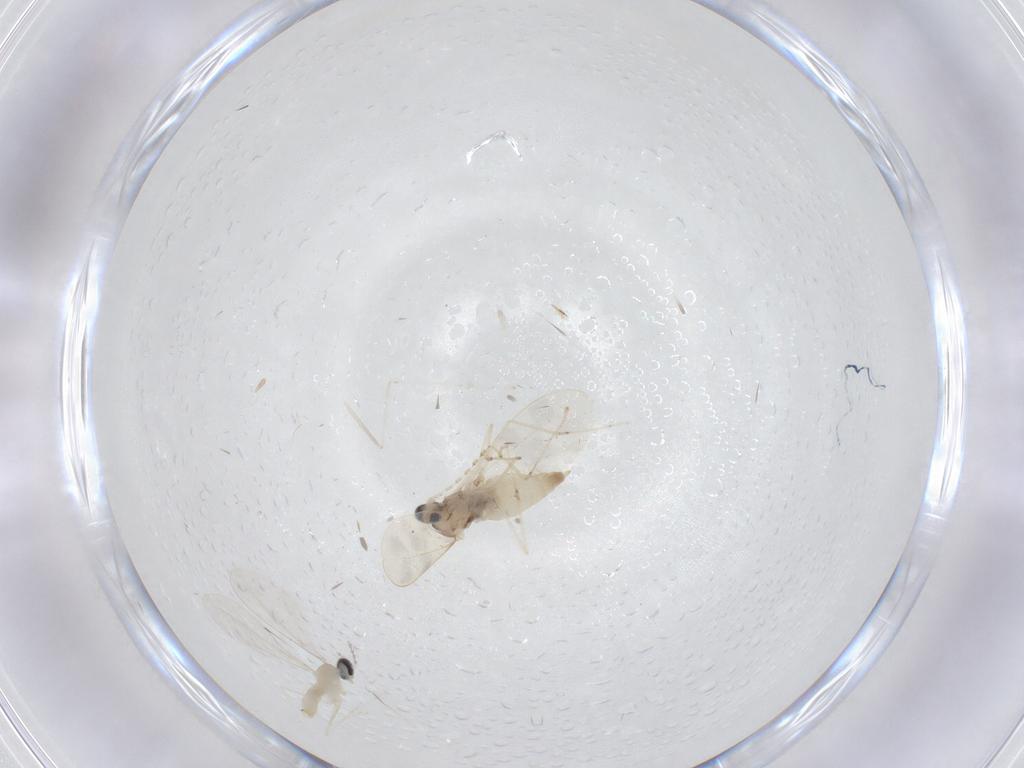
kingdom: Animalia
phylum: Arthropoda
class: Insecta
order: Diptera
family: Cecidomyiidae
